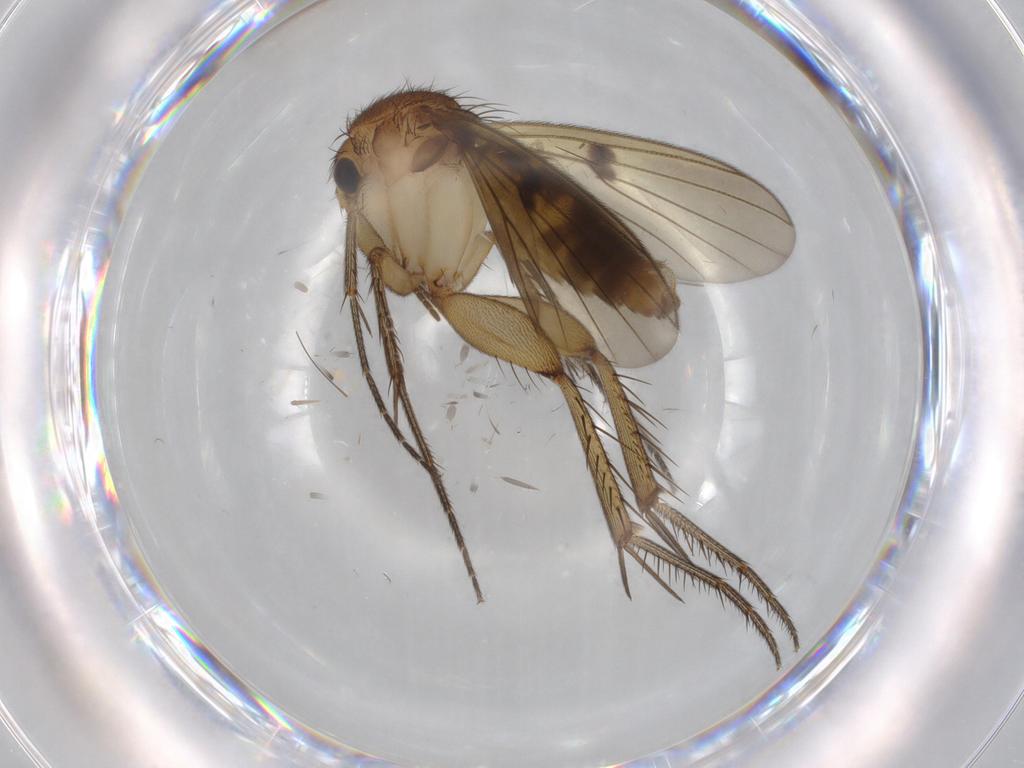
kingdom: Animalia
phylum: Arthropoda
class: Insecta
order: Diptera
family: Mycetophilidae
